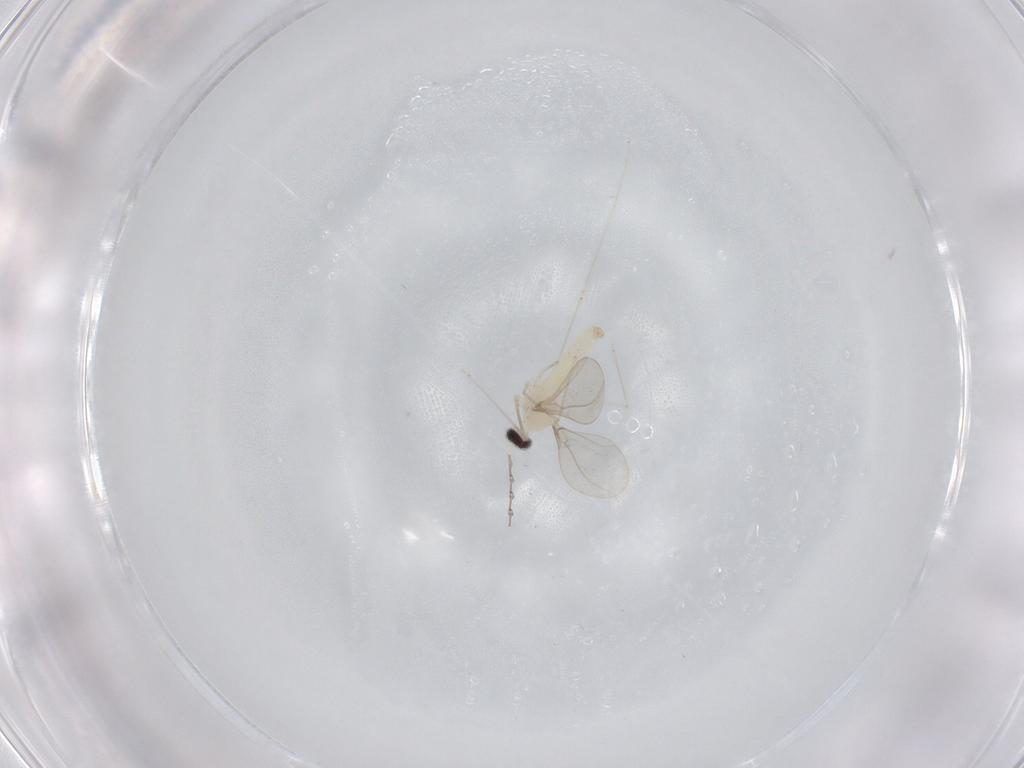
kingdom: Animalia
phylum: Arthropoda
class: Insecta
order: Diptera
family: Cecidomyiidae
